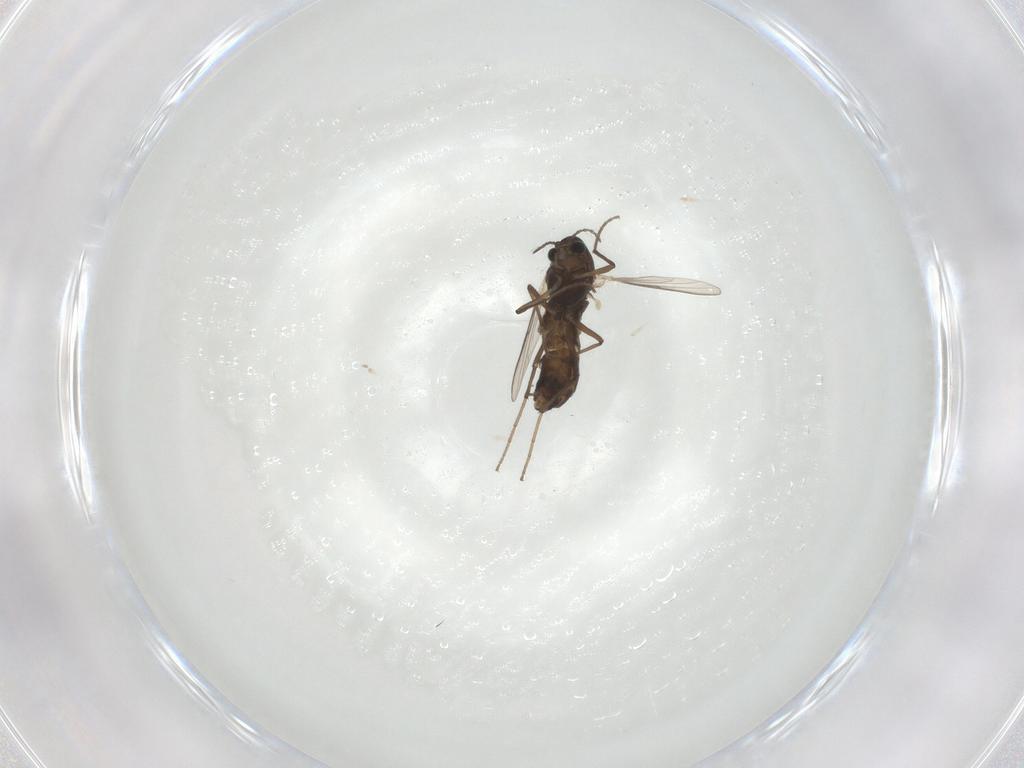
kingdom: Animalia
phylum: Arthropoda
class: Insecta
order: Diptera
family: Chironomidae
